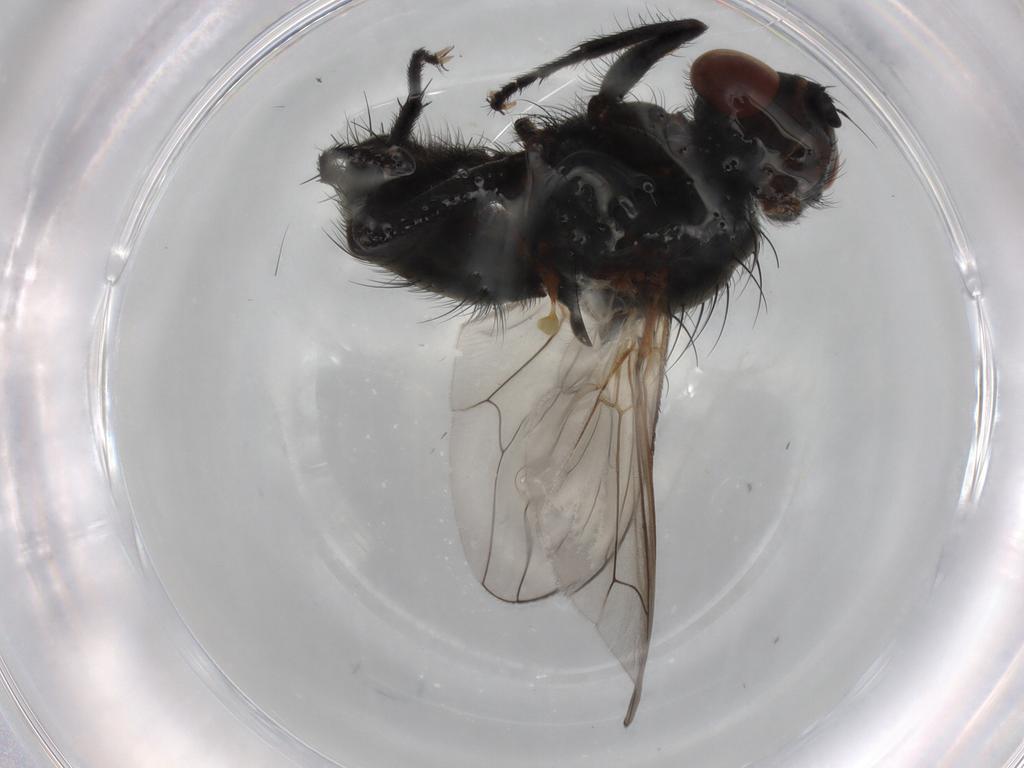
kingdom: Animalia
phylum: Arthropoda
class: Insecta
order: Diptera
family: Anthomyiidae
